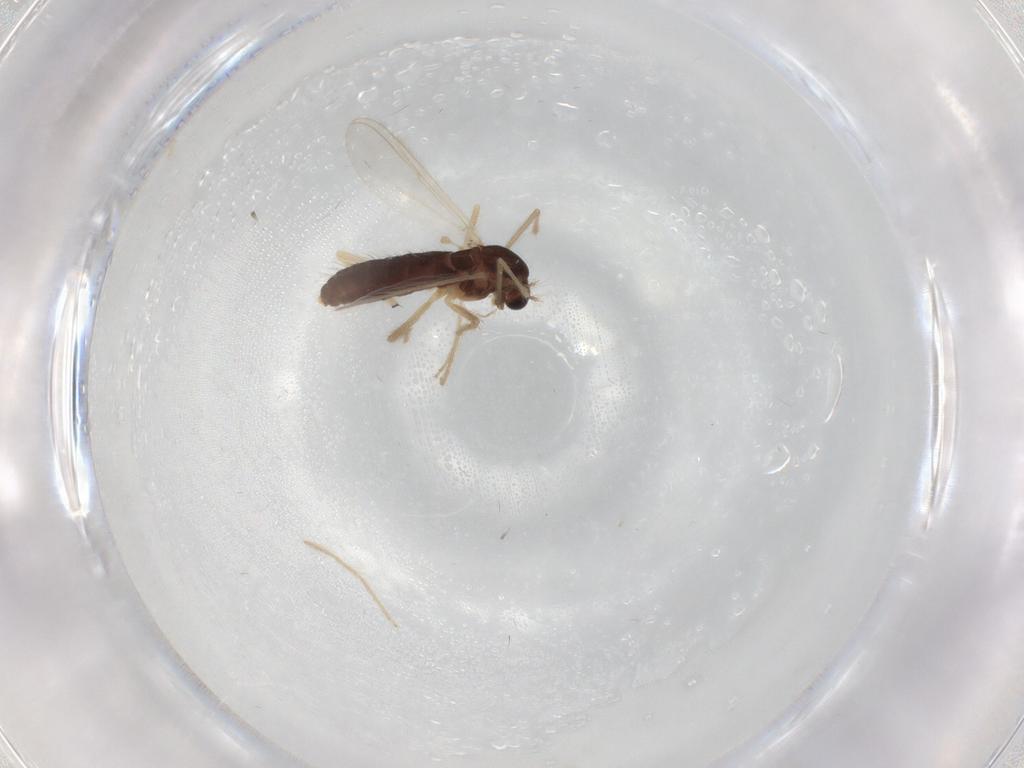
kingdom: Animalia
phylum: Arthropoda
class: Insecta
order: Diptera
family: Chironomidae
